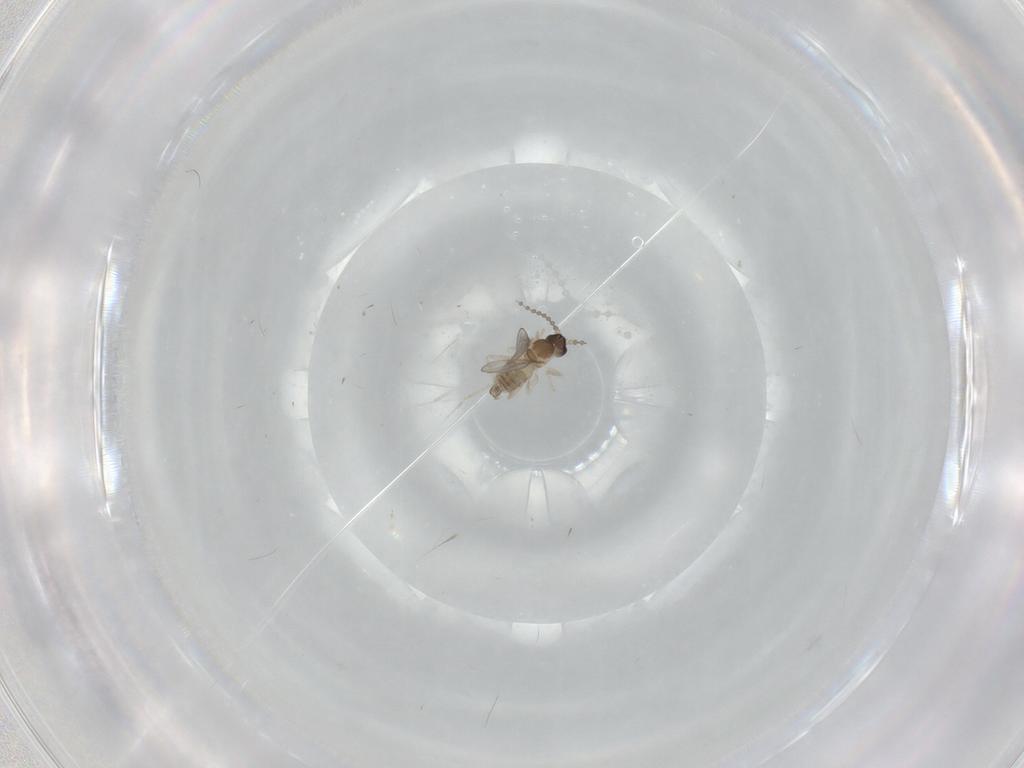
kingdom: Animalia
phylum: Arthropoda
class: Insecta
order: Diptera
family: Cecidomyiidae
